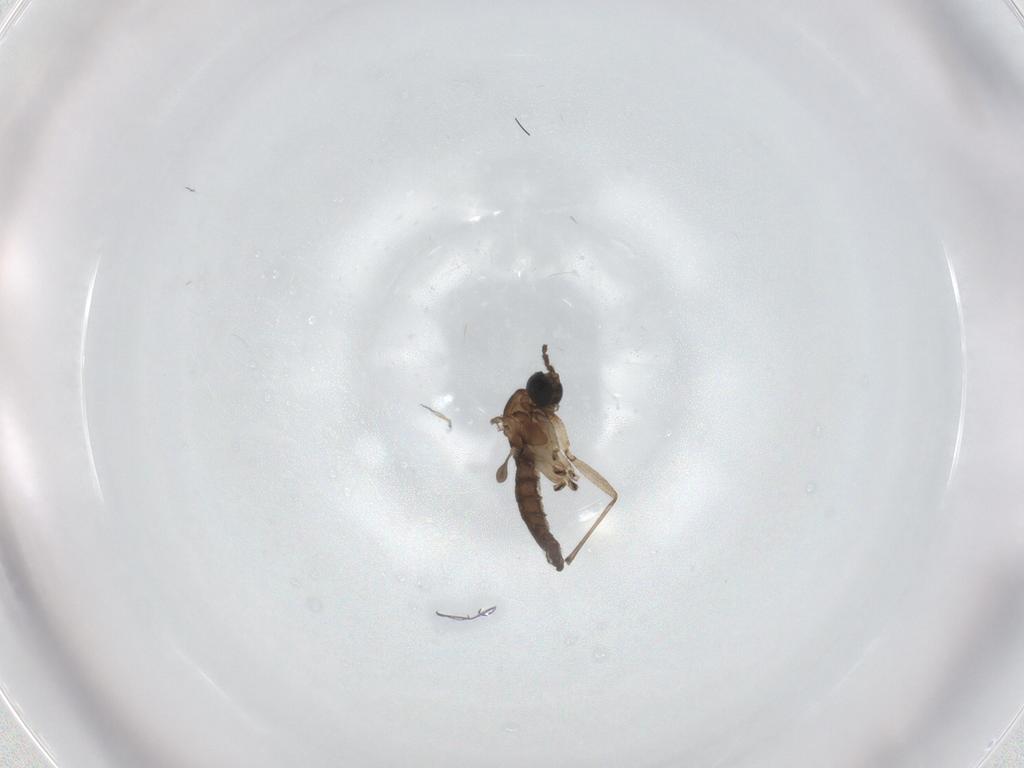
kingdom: Animalia
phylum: Arthropoda
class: Insecta
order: Diptera
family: Sciaridae
